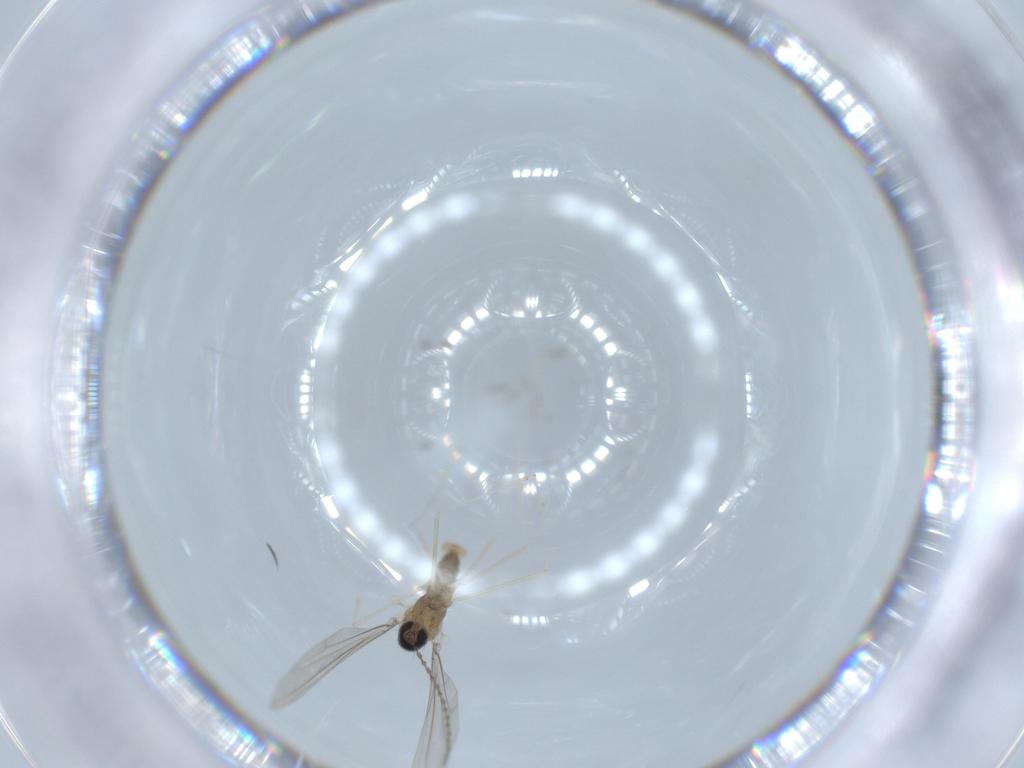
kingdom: Animalia
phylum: Arthropoda
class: Insecta
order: Diptera
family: Cecidomyiidae
